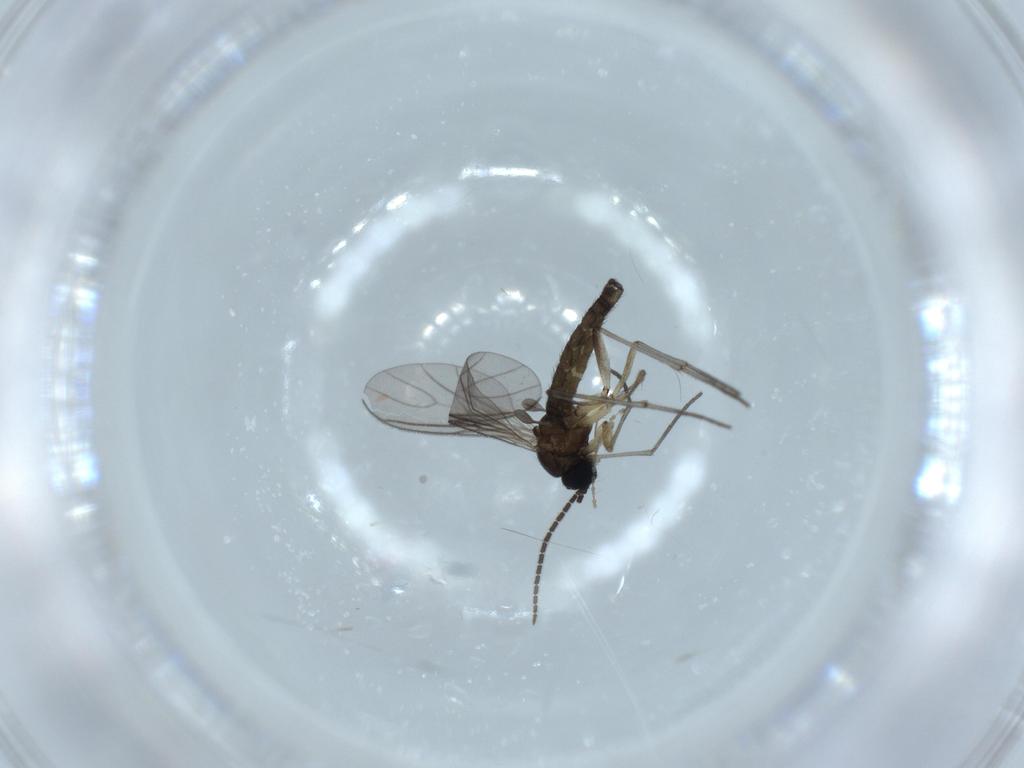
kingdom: Animalia
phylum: Arthropoda
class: Insecta
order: Diptera
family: Sciaridae
